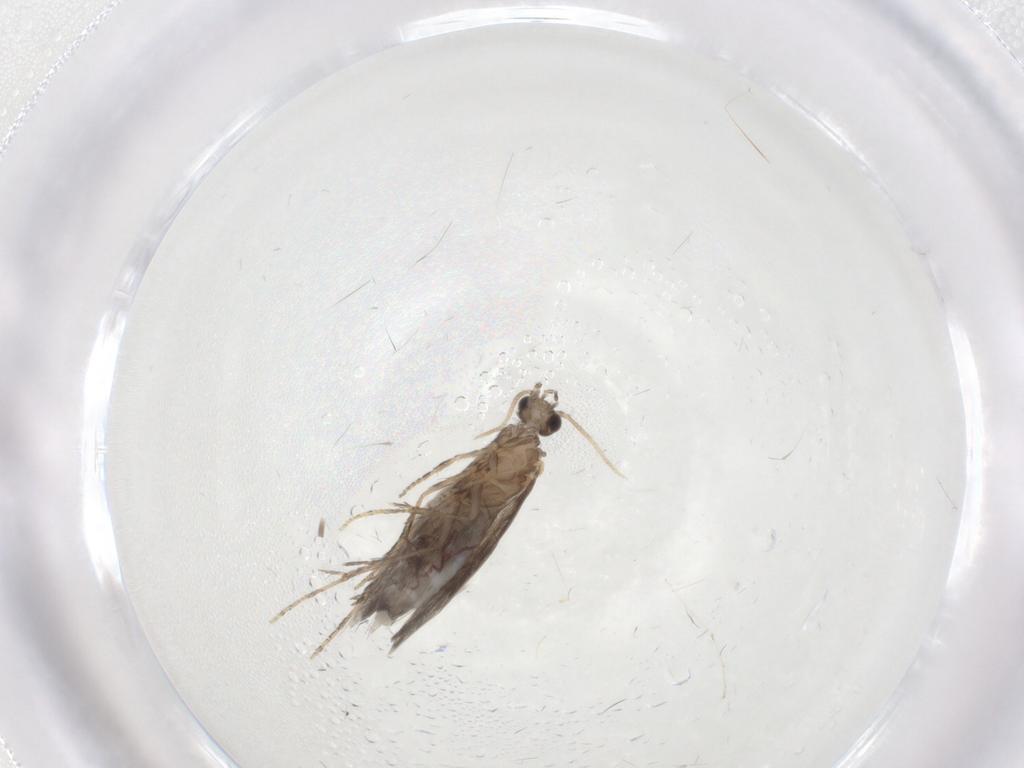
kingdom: Animalia
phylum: Arthropoda
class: Insecta
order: Trichoptera
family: Hydroptilidae
